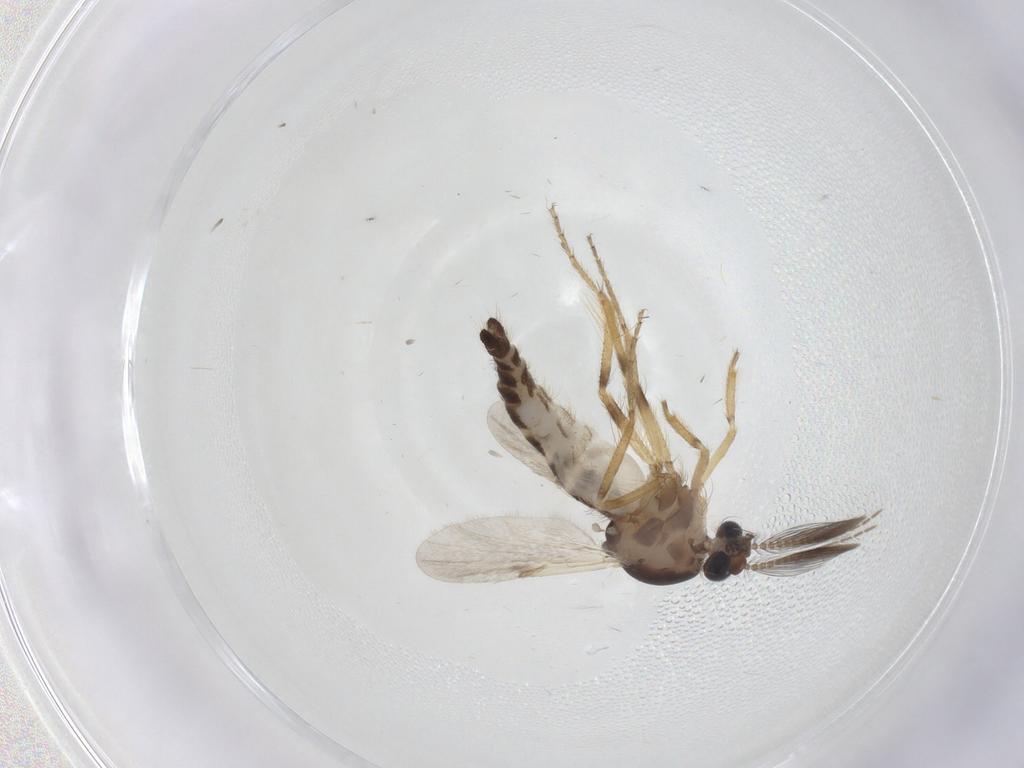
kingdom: Animalia
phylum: Arthropoda
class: Insecta
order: Diptera
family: Ceratopogonidae
